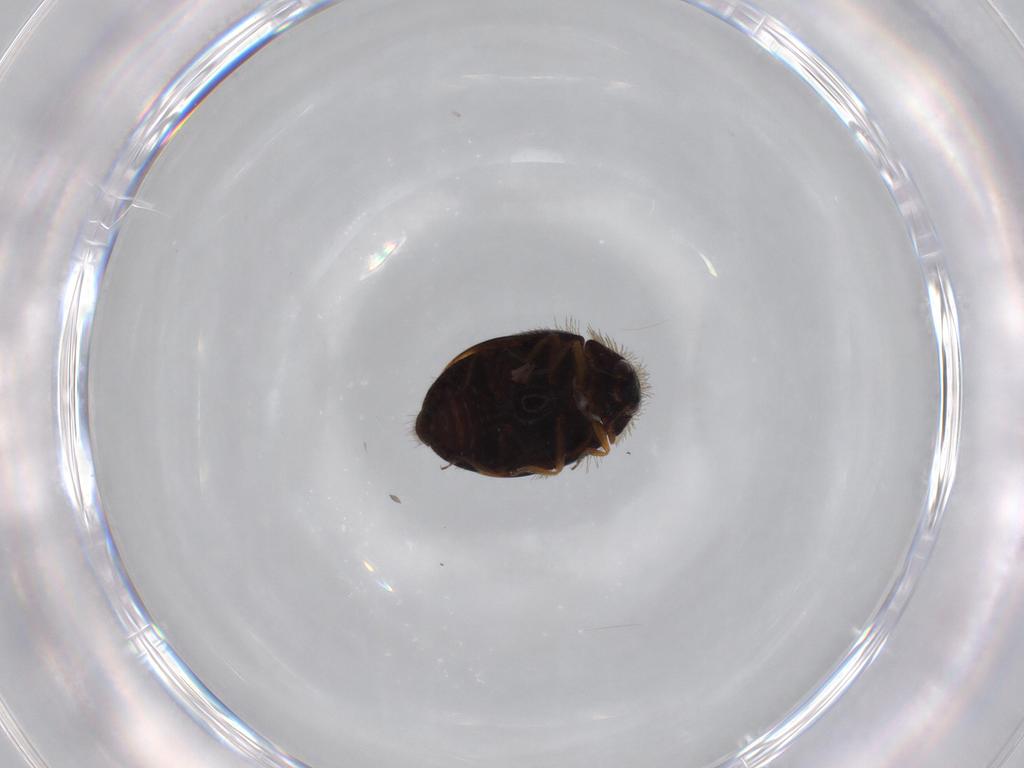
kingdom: Animalia
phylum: Arthropoda
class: Insecta
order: Coleoptera
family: Dermestidae
